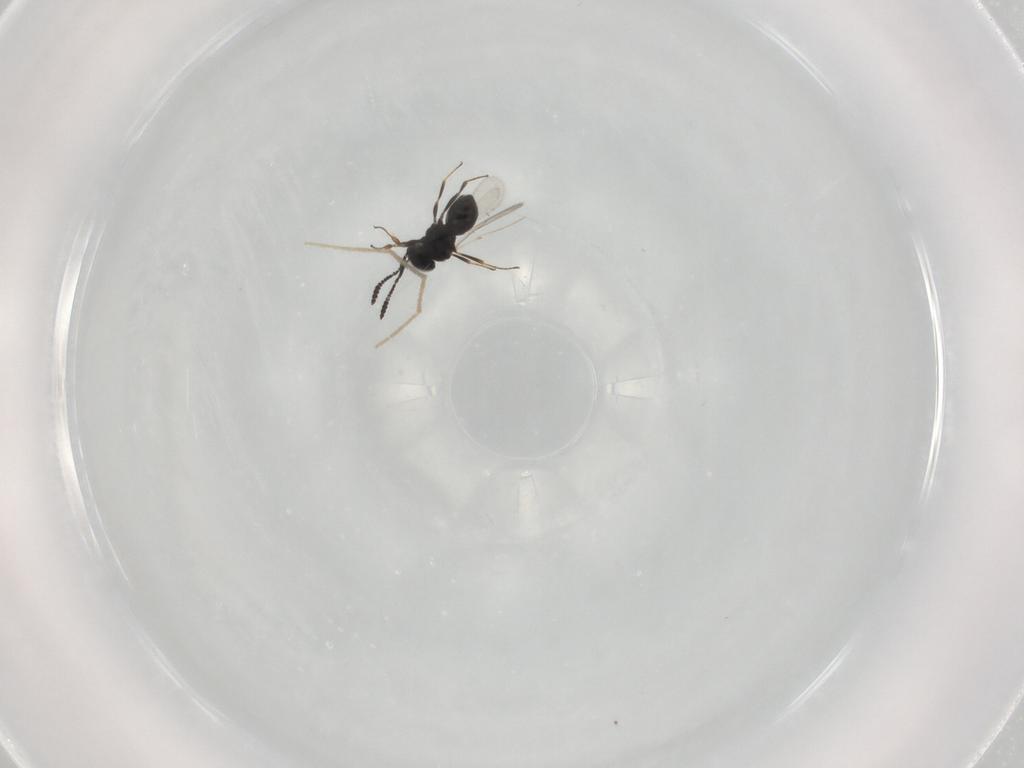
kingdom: Animalia
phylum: Arthropoda
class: Insecta
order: Hymenoptera
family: Scelionidae
